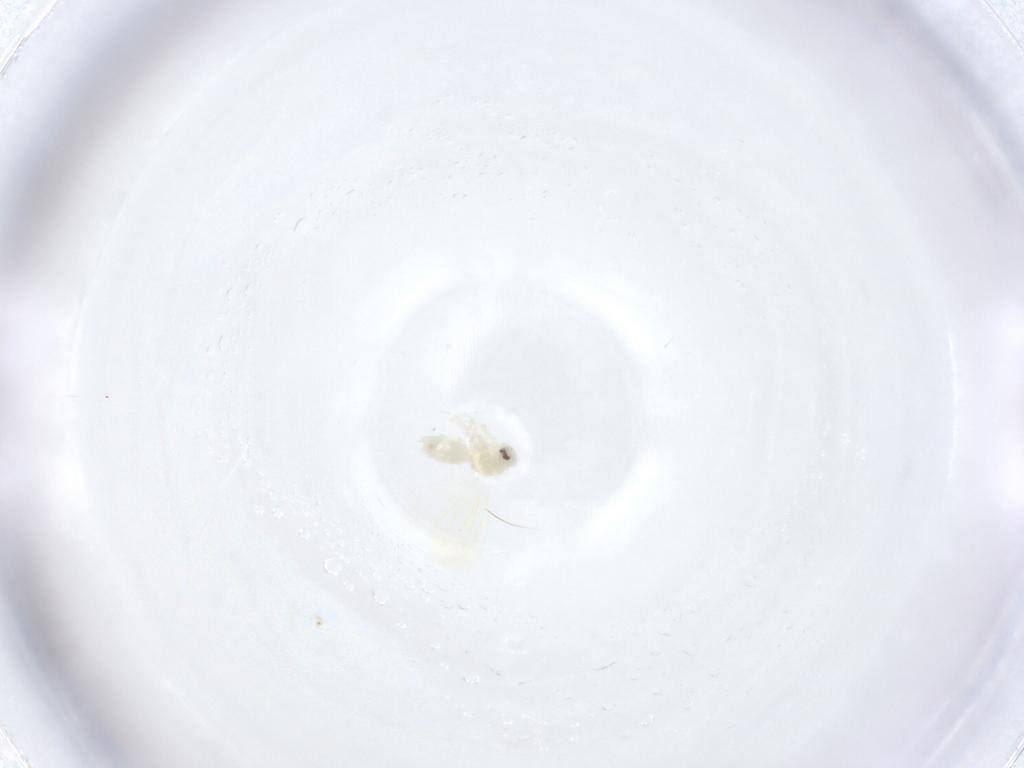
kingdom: Animalia
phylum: Arthropoda
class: Insecta
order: Hemiptera
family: Aleyrodidae
